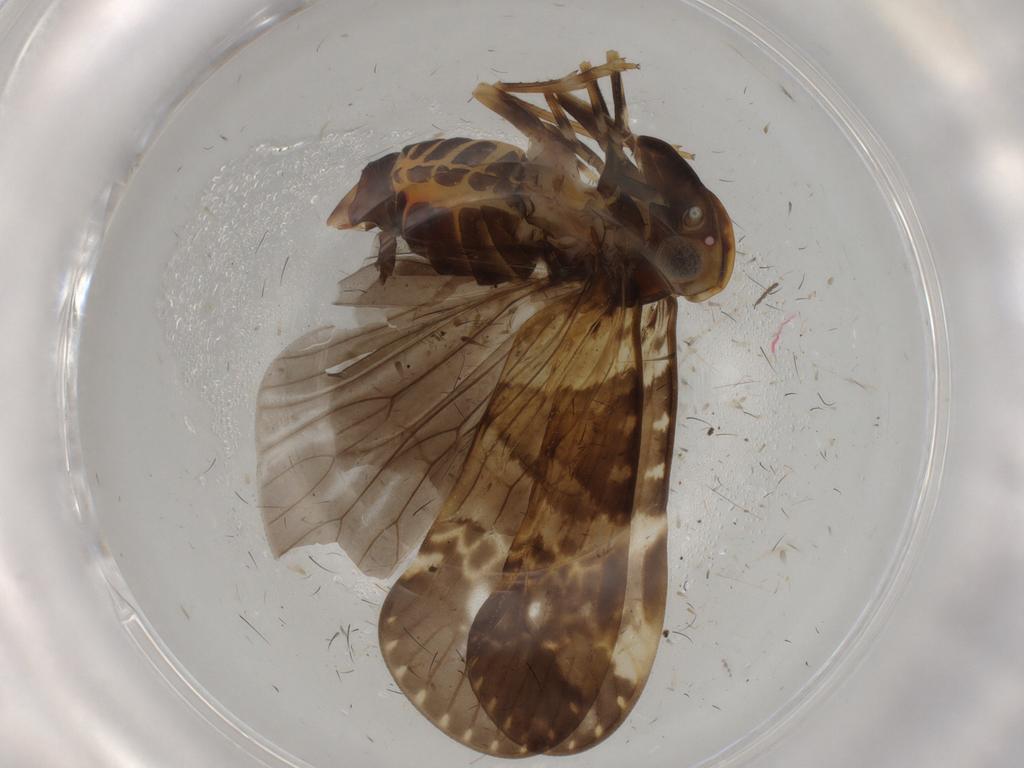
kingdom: Animalia
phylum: Arthropoda
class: Insecta
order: Hemiptera
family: Cixiidae
